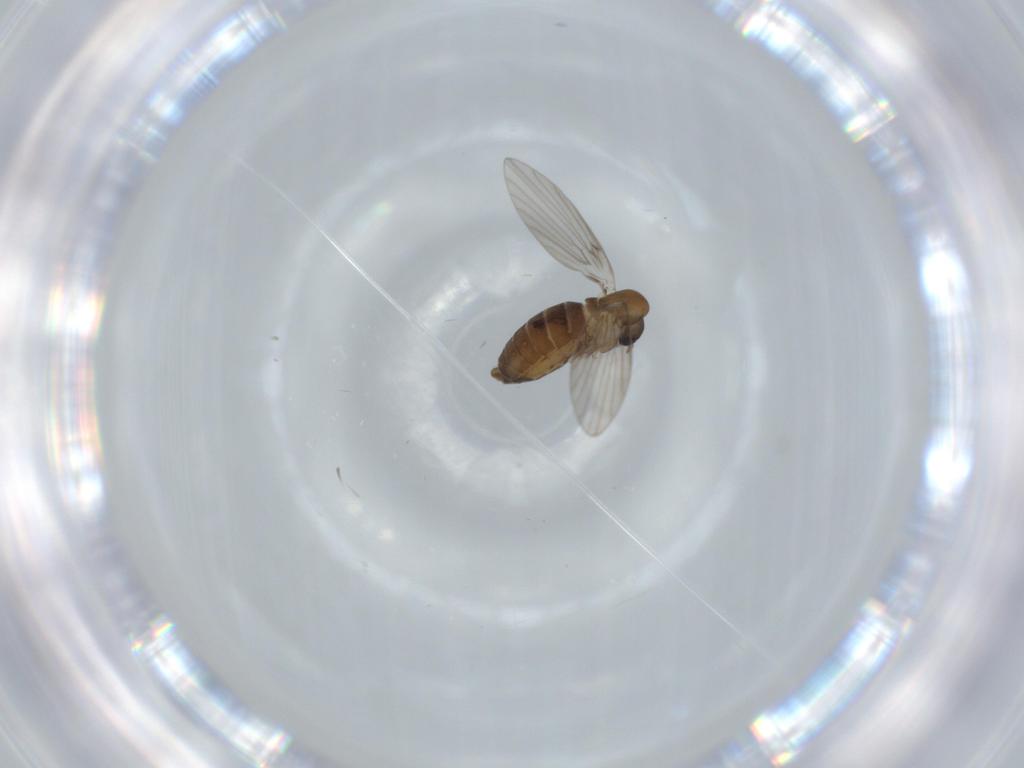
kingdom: Animalia
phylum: Arthropoda
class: Insecta
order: Diptera
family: Psychodidae
